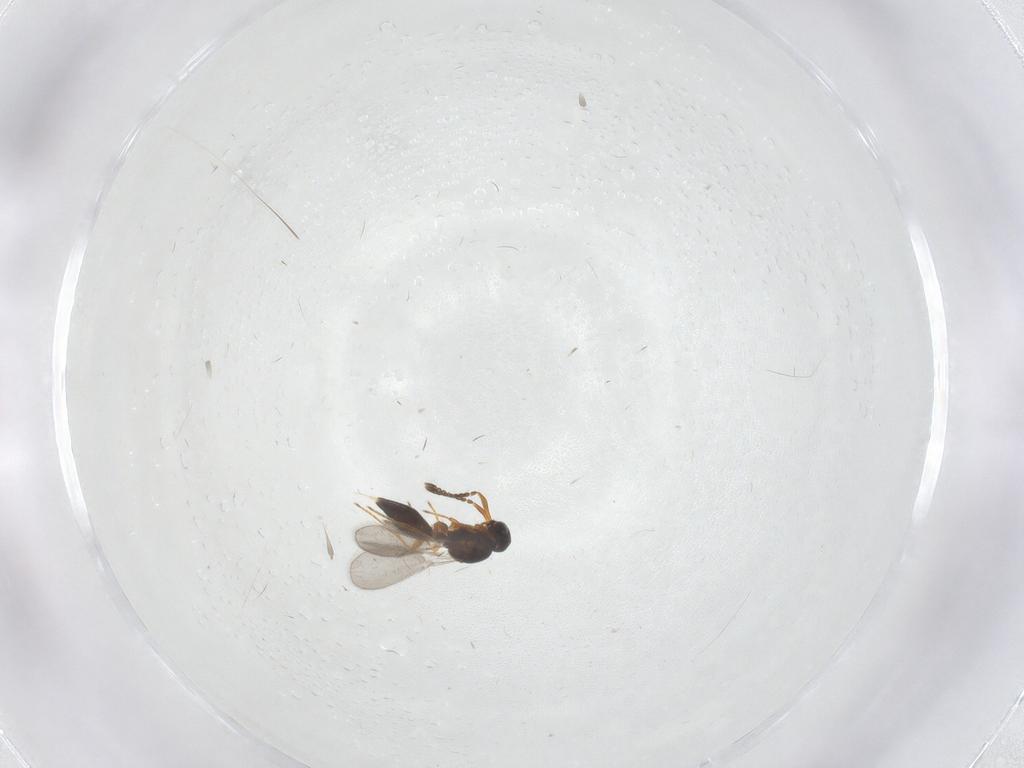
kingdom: Animalia
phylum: Arthropoda
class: Insecta
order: Hymenoptera
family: Platygastridae
